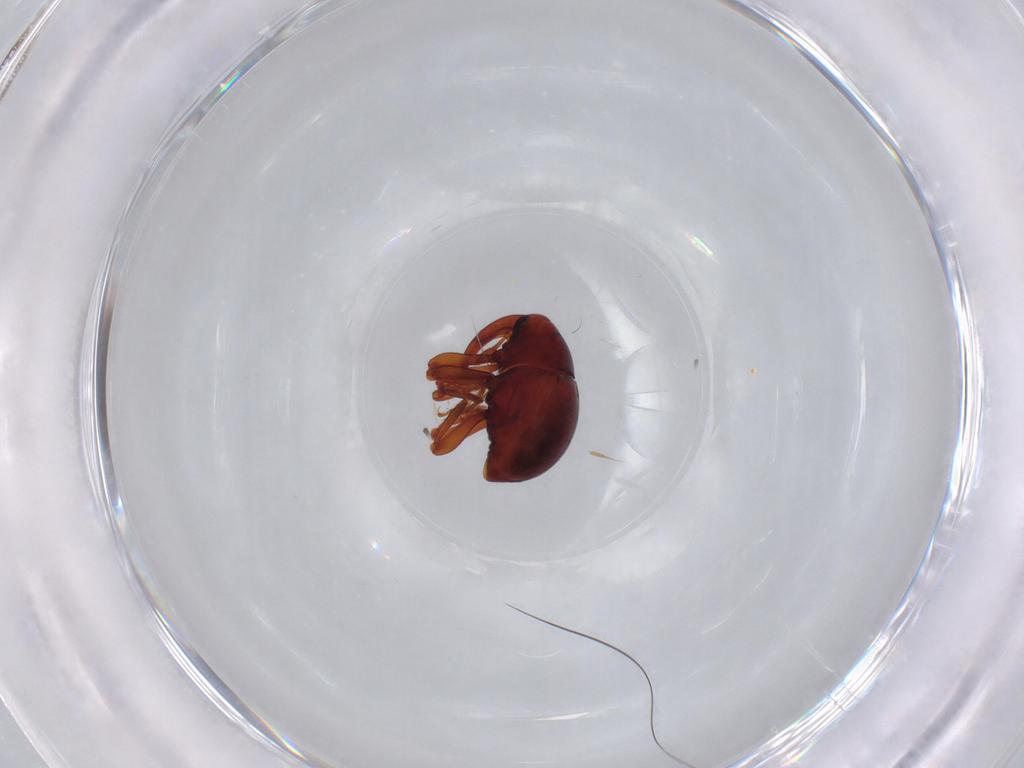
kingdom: Animalia
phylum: Arthropoda
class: Insecta
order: Coleoptera
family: Curculionidae
